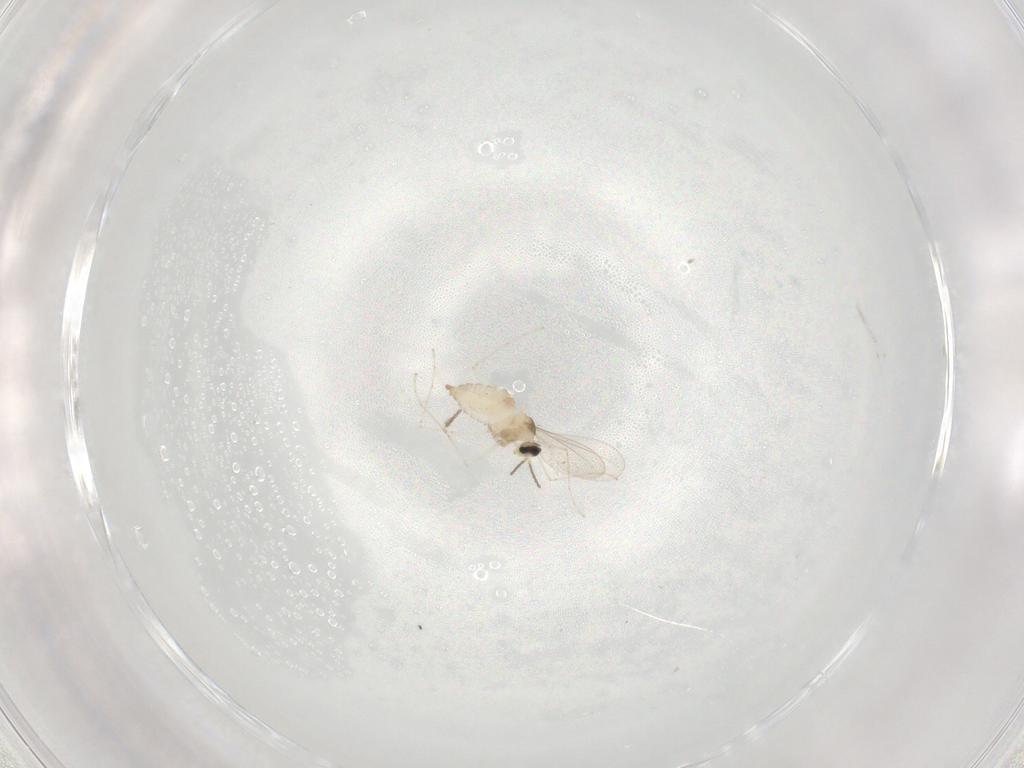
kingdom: Animalia
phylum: Arthropoda
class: Insecta
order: Diptera
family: Cecidomyiidae
